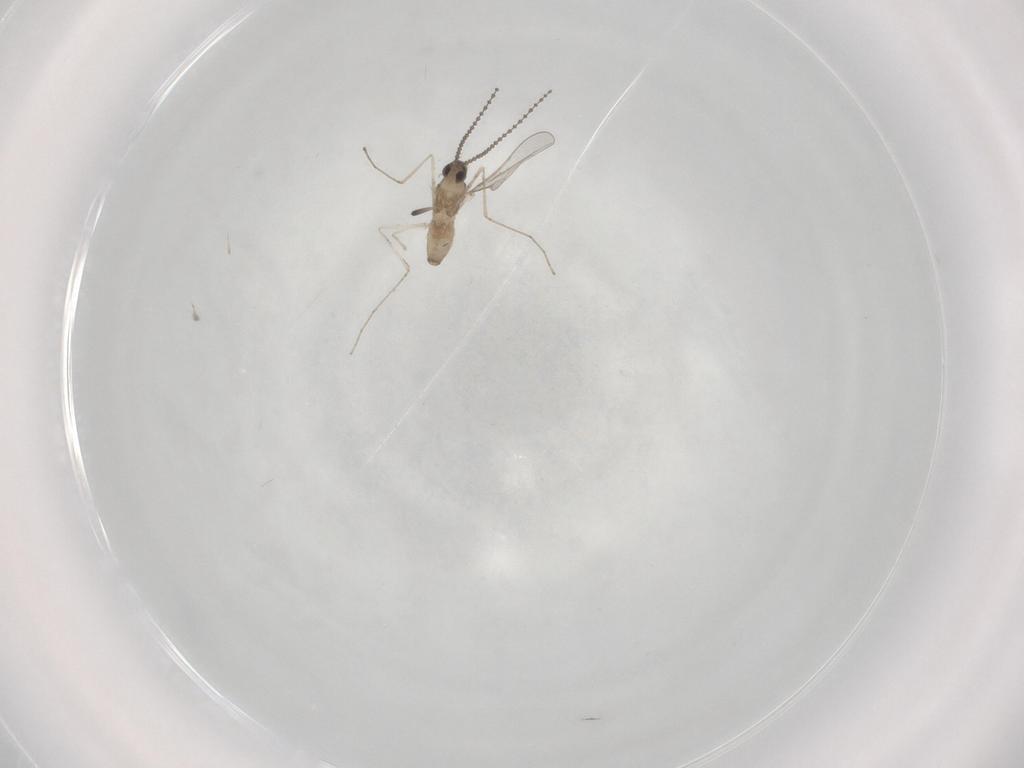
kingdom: Animalia
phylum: Arthropoda
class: Insecta
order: Diptera
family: Cecidomyiidae
